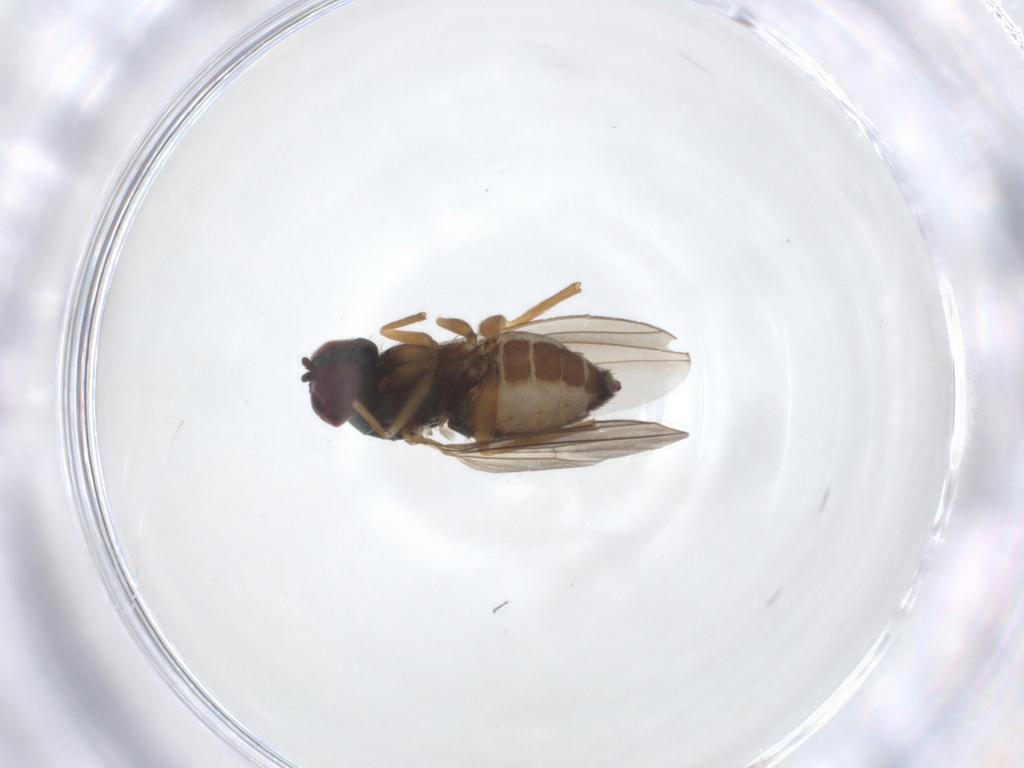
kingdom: Animalia
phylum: Arthropoda
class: Insecta
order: Diptera
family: Dolichopodidae
